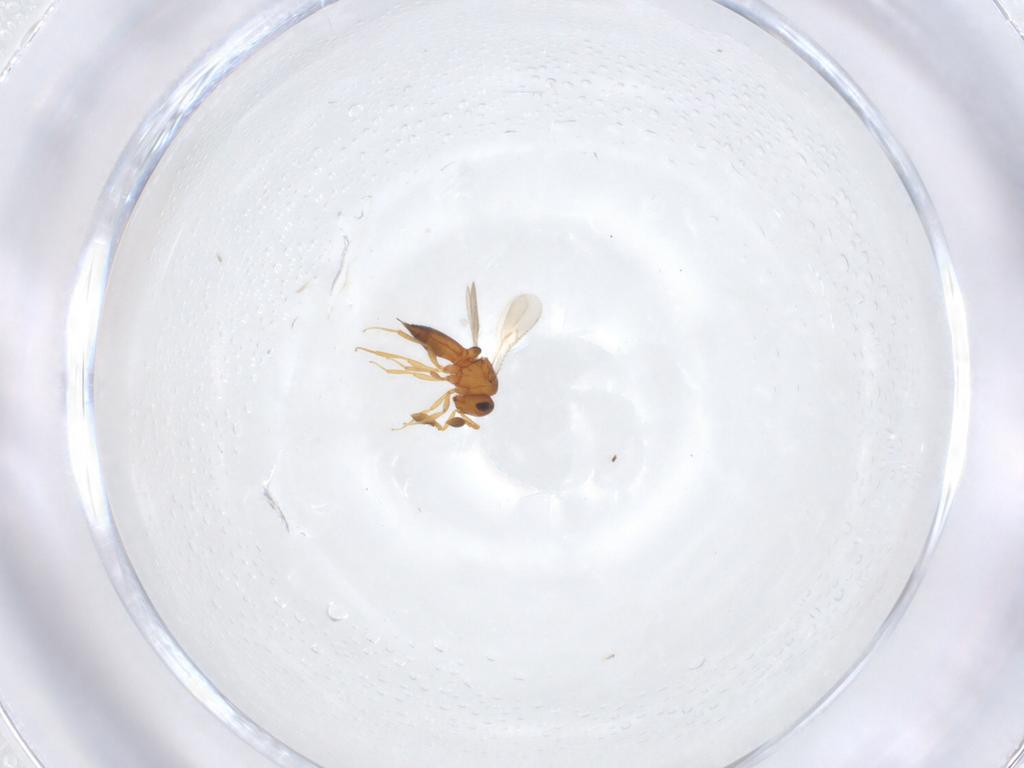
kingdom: Animalia
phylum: Arthropoda
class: Insecta
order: Hymenoptera
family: Scelionidae
